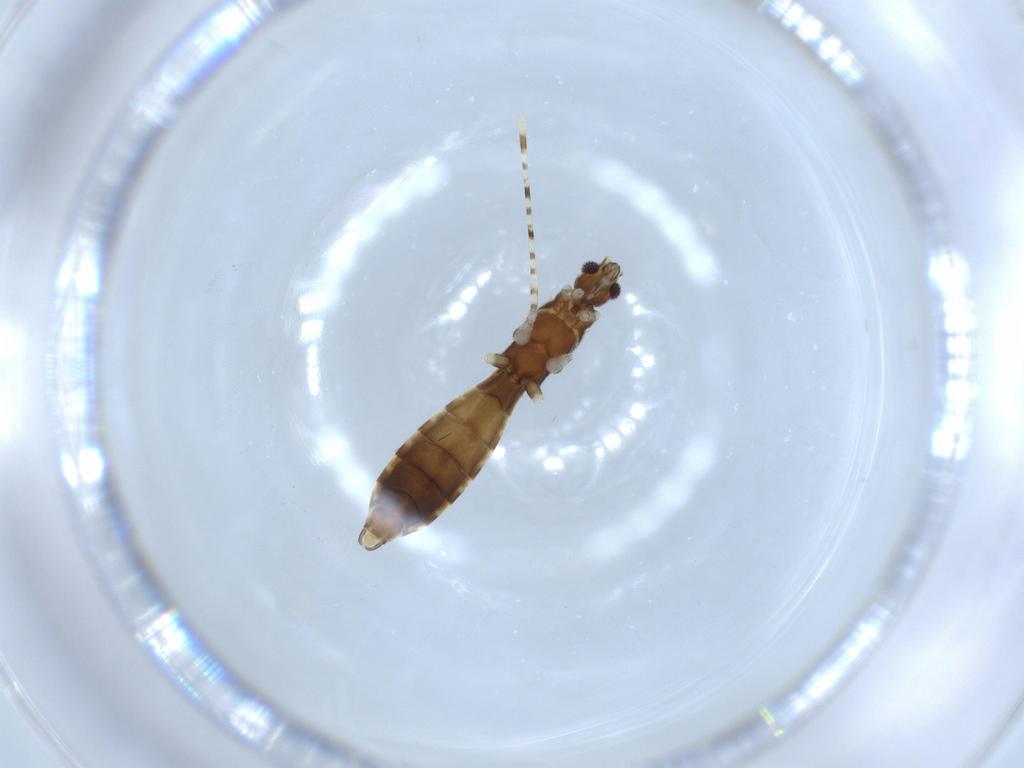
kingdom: Animalia
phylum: Arthropoda
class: Insecta
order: Hemiptera
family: Reduviidae
